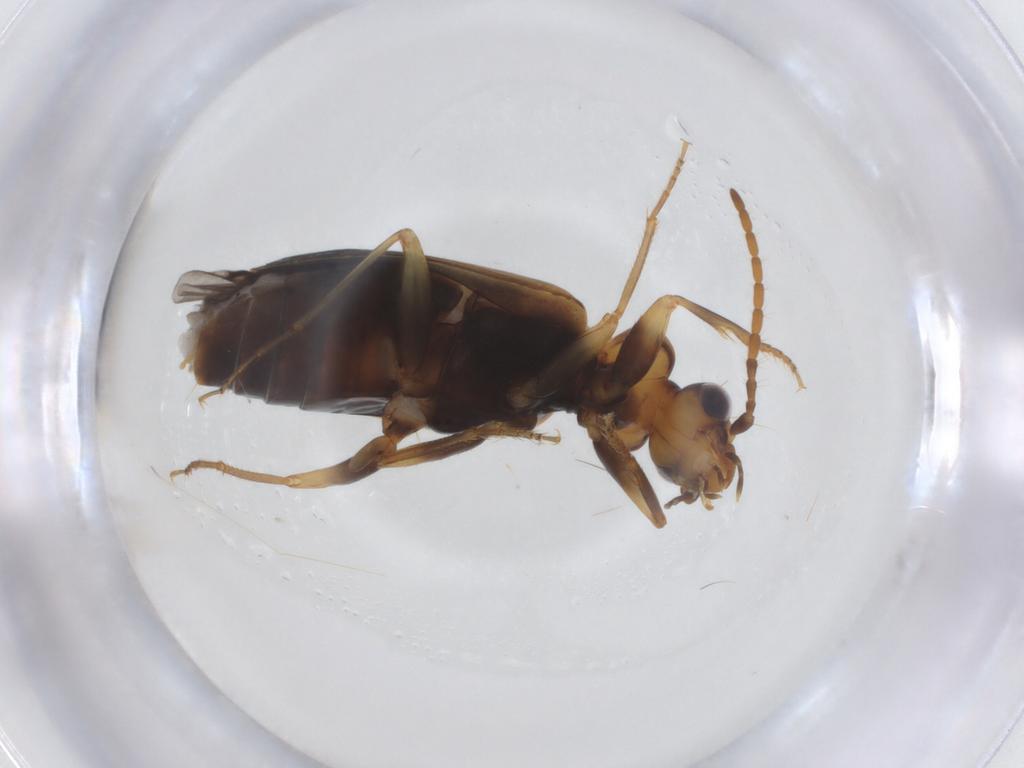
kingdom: Animalia
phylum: Arthropoda
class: Insecta
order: Coleoptera
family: Carabidae
